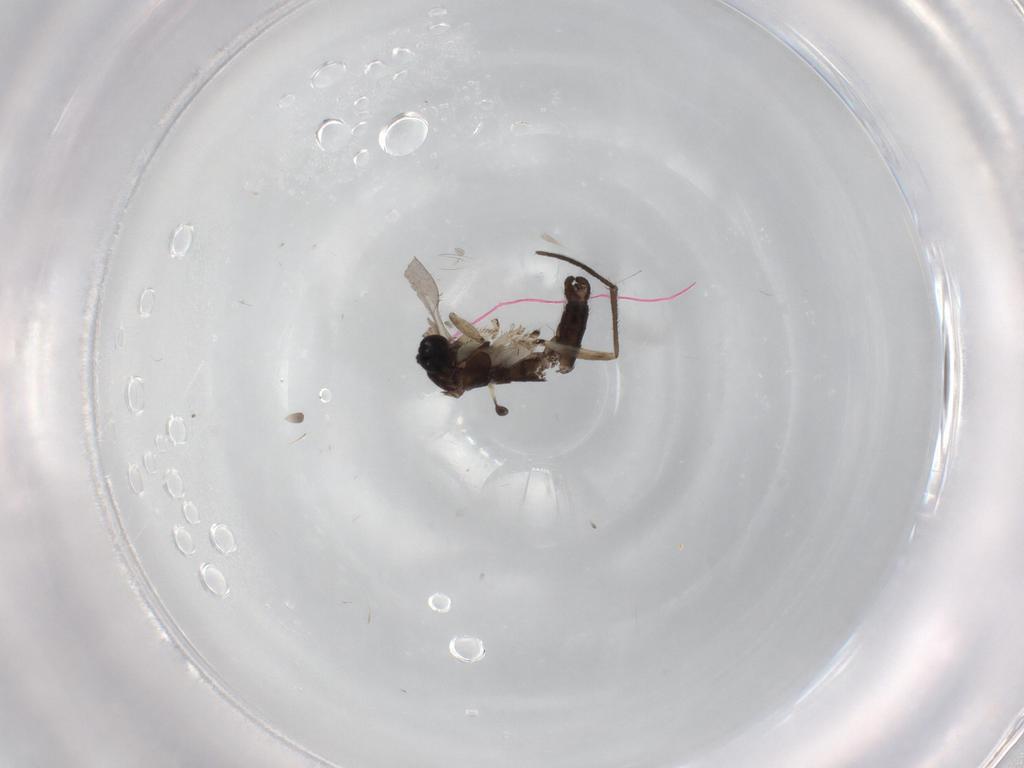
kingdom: Animalia
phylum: Arthropoda
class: Insecta
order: Diptera
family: Sciaridae
